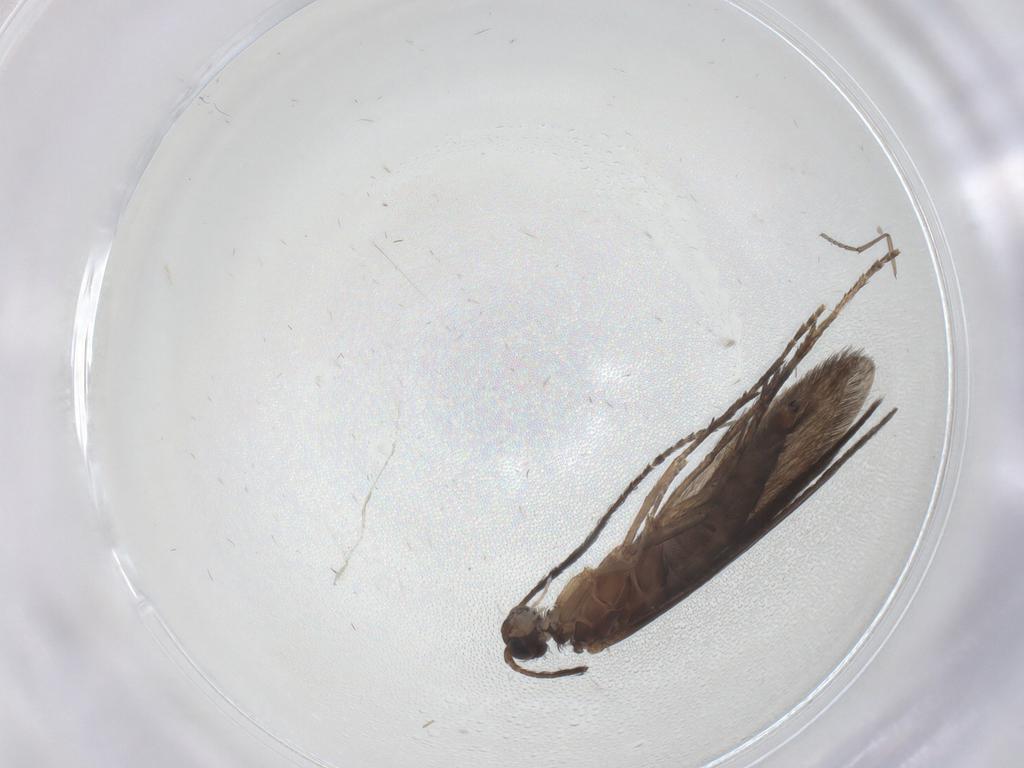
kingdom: Animalia
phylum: Arthropoda
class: Insecta
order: Trichoptera
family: Xiphocentronidae
